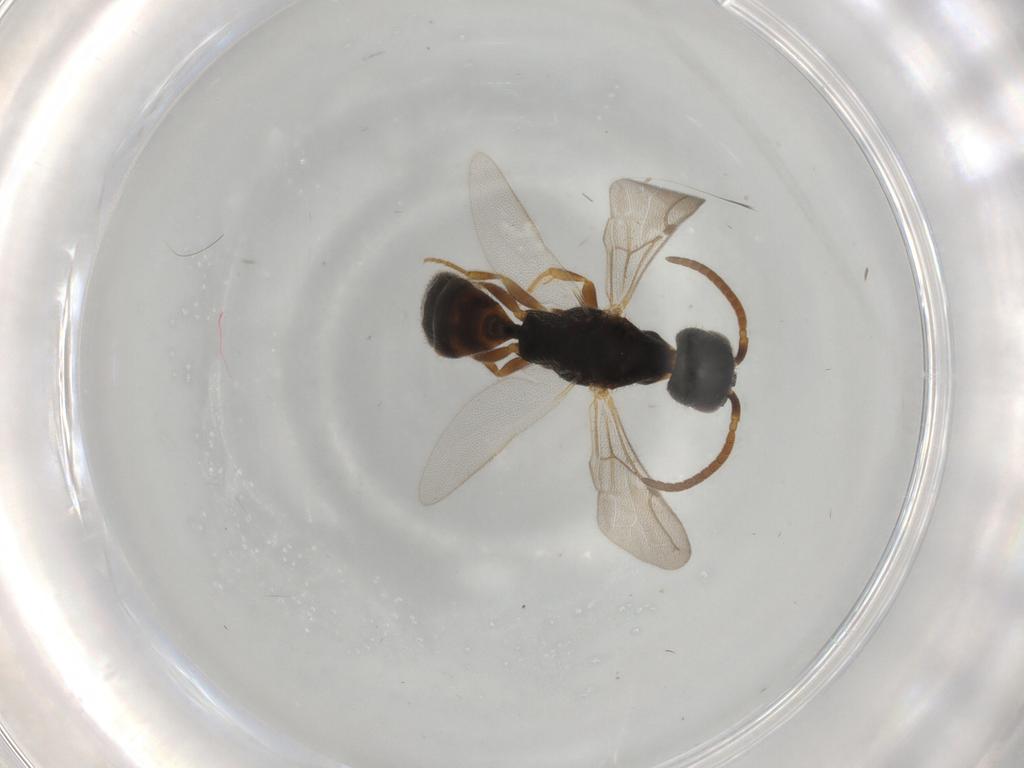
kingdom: Animalia
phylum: Arthropoda
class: Insecta
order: Hymenoptera
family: Bethylidae
